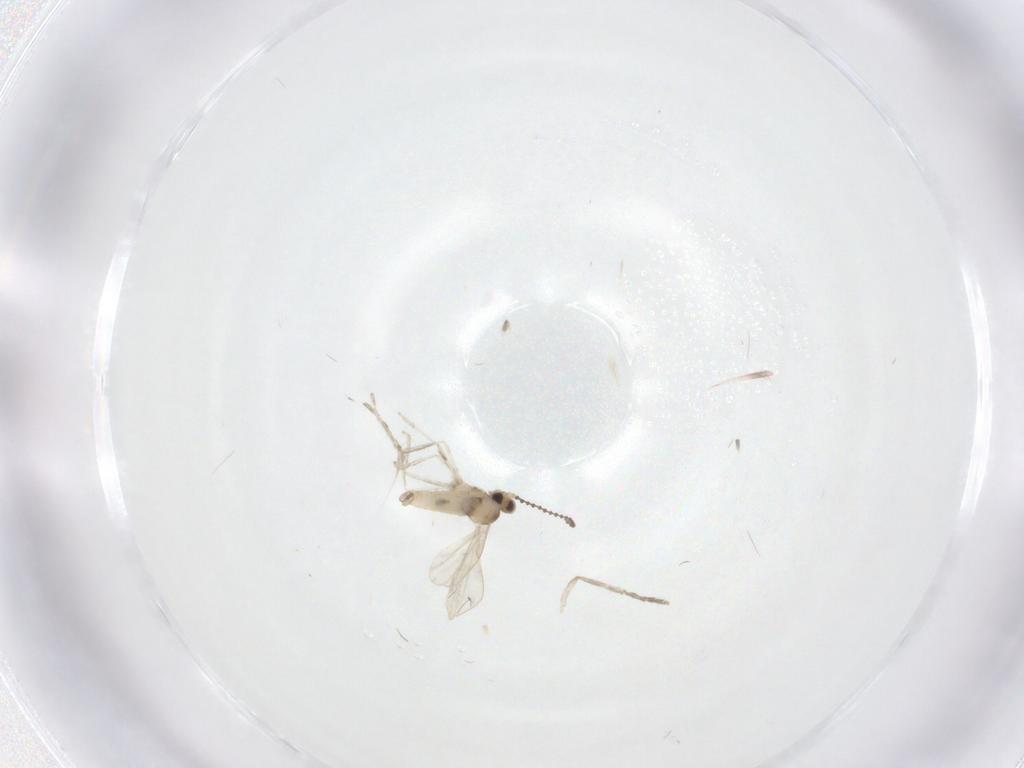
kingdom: Animalia
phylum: Arthropoda
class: Insecta
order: Diptera
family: Cecidomyiidae
